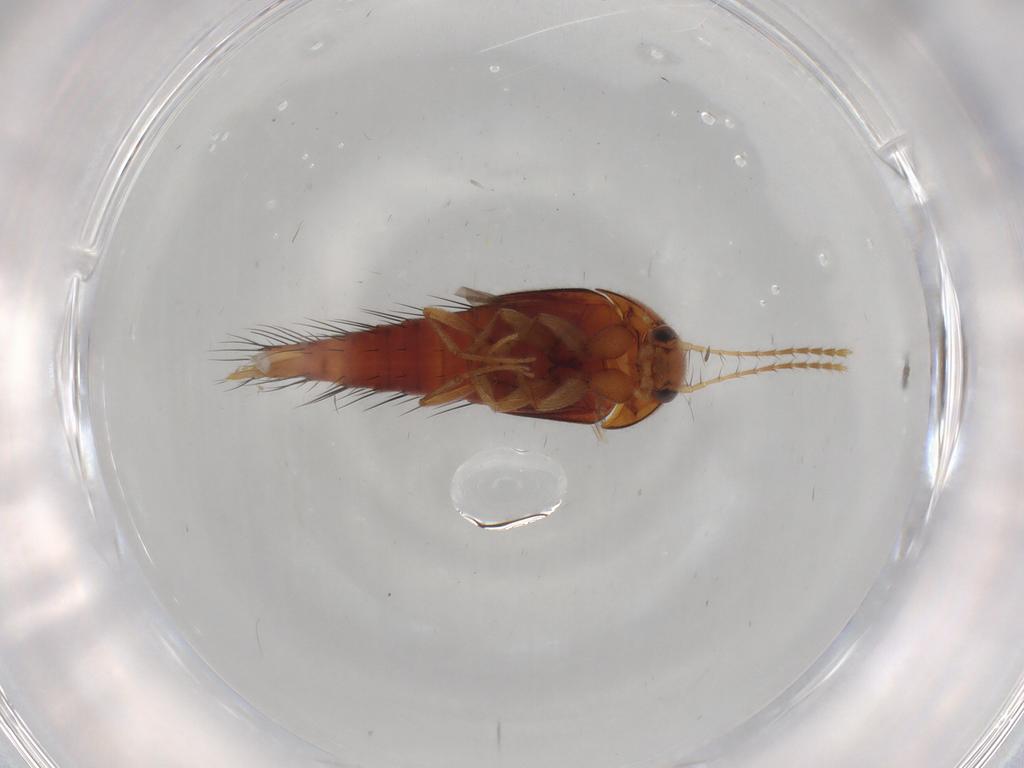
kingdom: Animalia
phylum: Arthropoda
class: Insecta
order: Coleoptera
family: Staphylinidae
